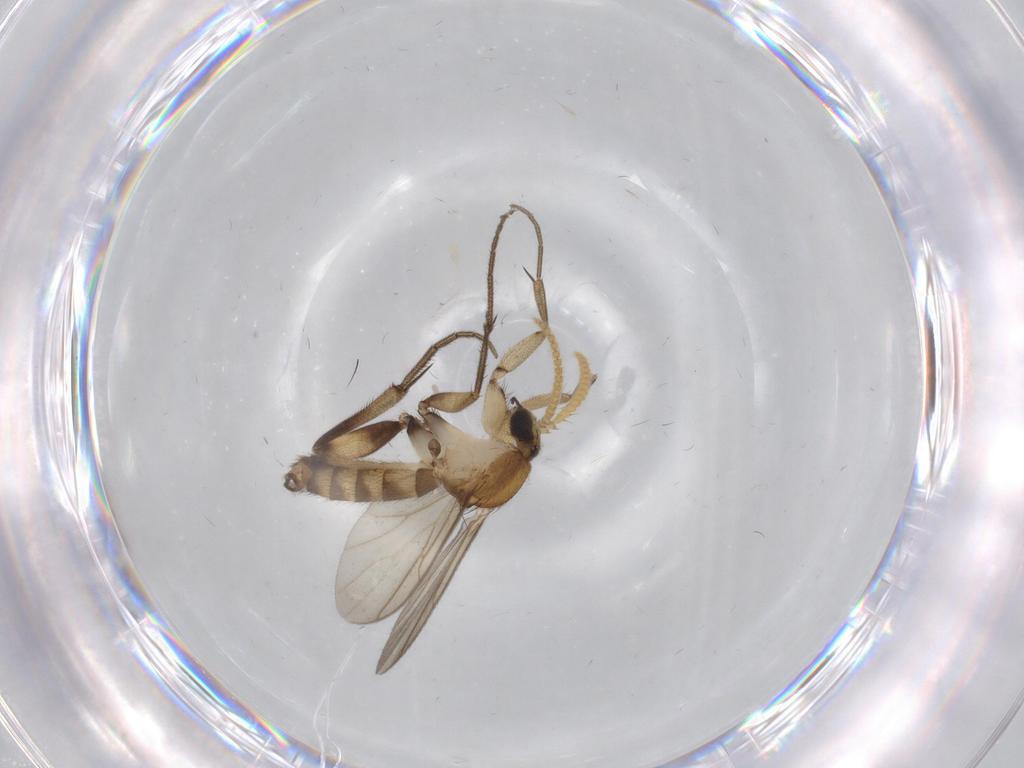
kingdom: Animalia
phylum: Arthropoda
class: Insecta
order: Diptera
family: Mycetophilidae
